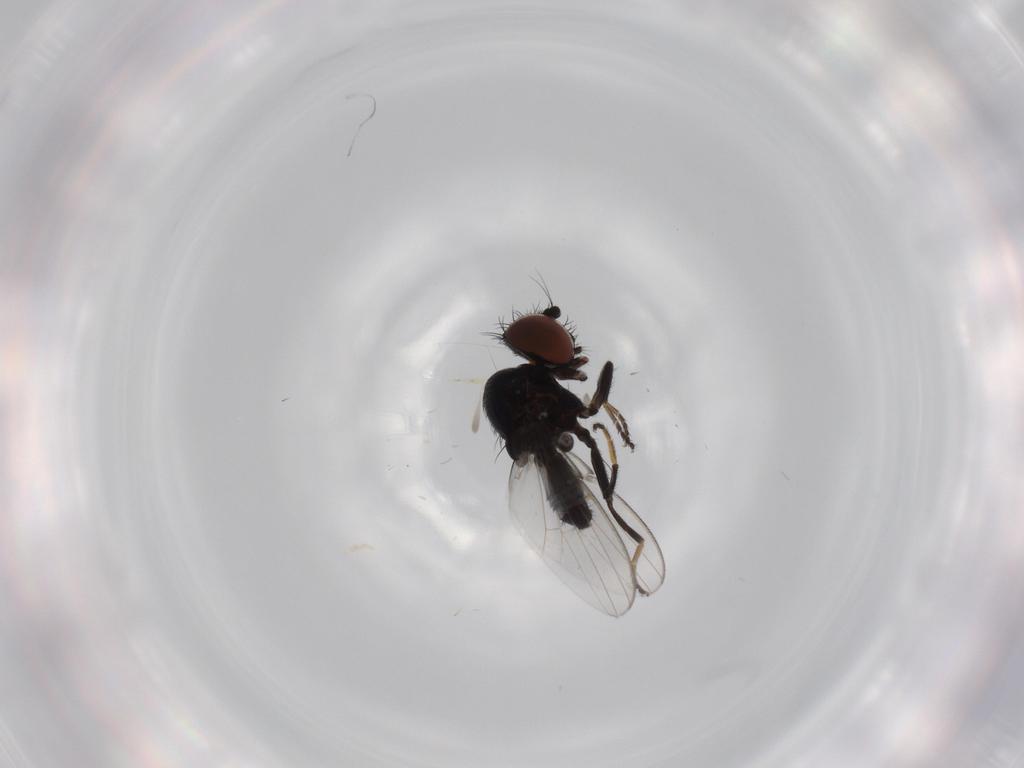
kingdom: Animalia
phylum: Arthropoda
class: Insecta
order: Diptera
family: Milichiidae
